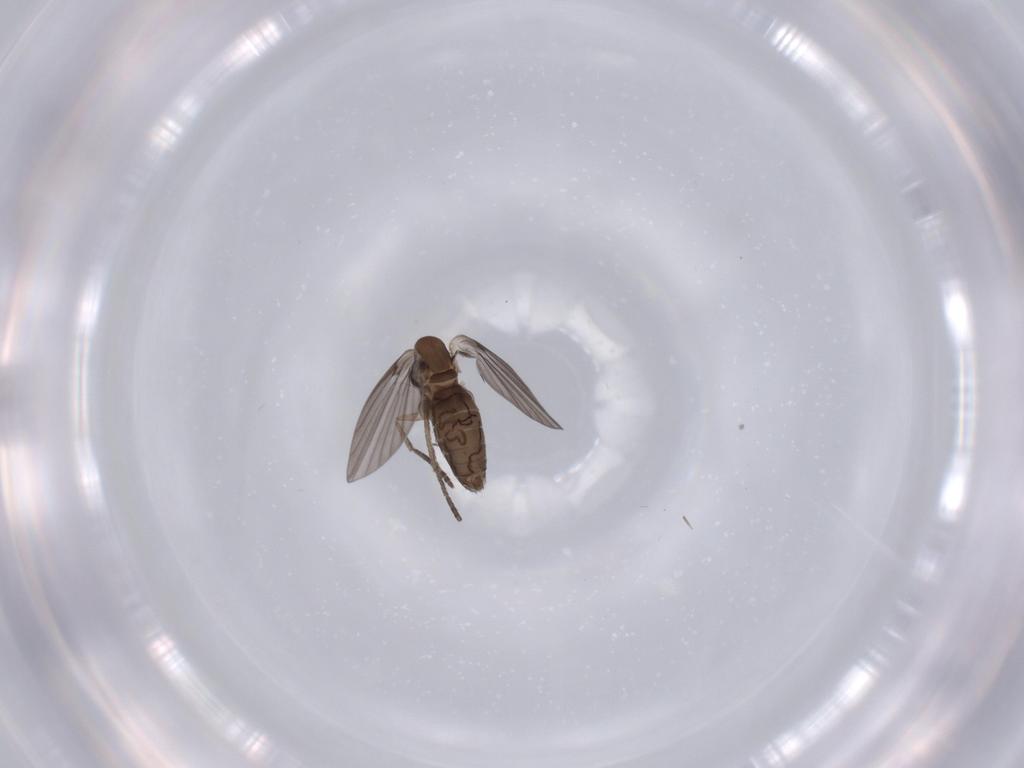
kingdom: Animalia
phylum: Arthropoda
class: Insecta
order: Diptera
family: Psychodidae
